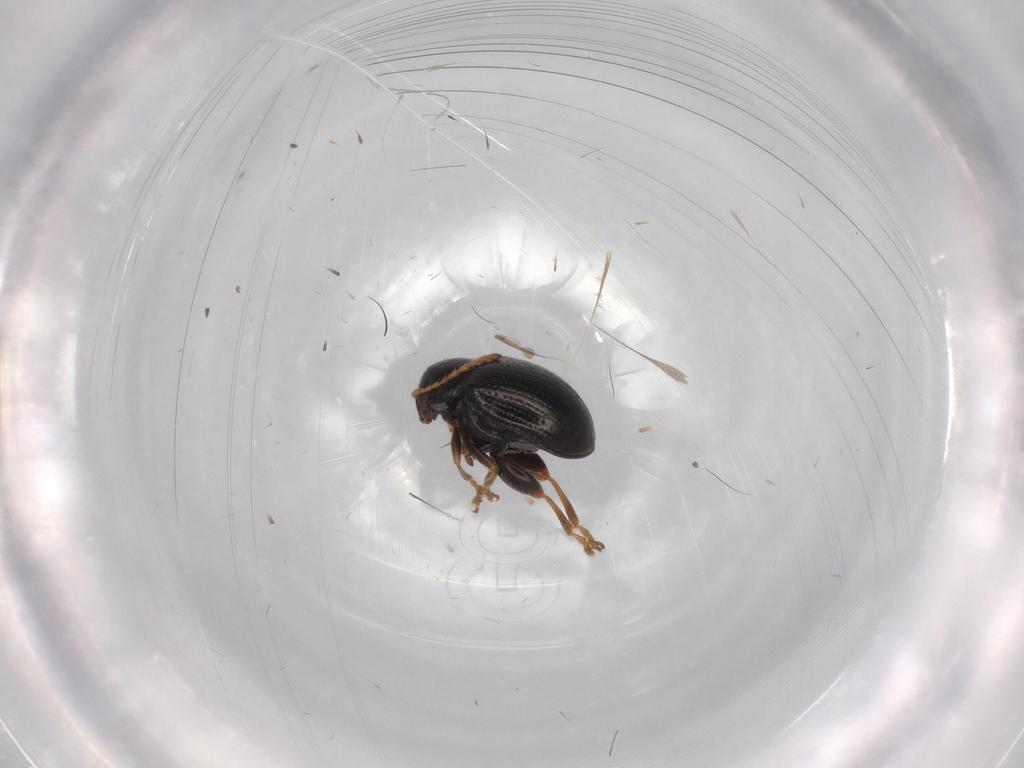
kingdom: Animalia
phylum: Arthropoda
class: Insecta
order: Coleoptera
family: Chrysomelidae
